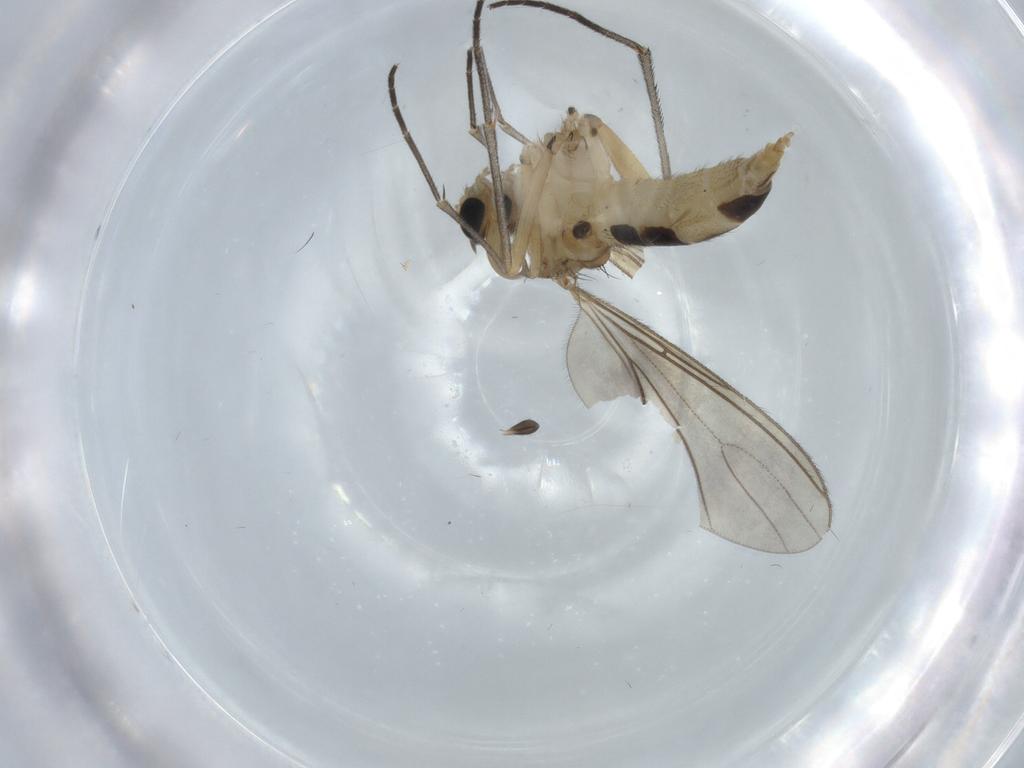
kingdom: Animalia
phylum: Arthropoda
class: Insecta
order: Diptera
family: Sciaridae
